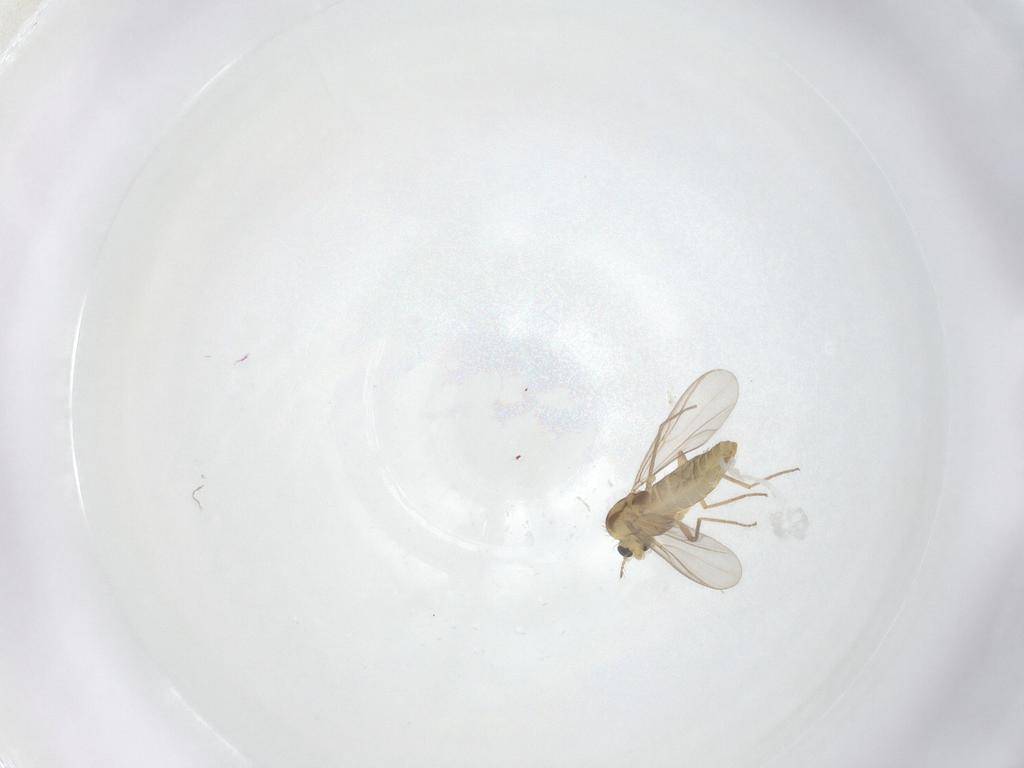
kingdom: Animalia
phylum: Arthropoda
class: Insecta
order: Diptera
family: Chironomidae
